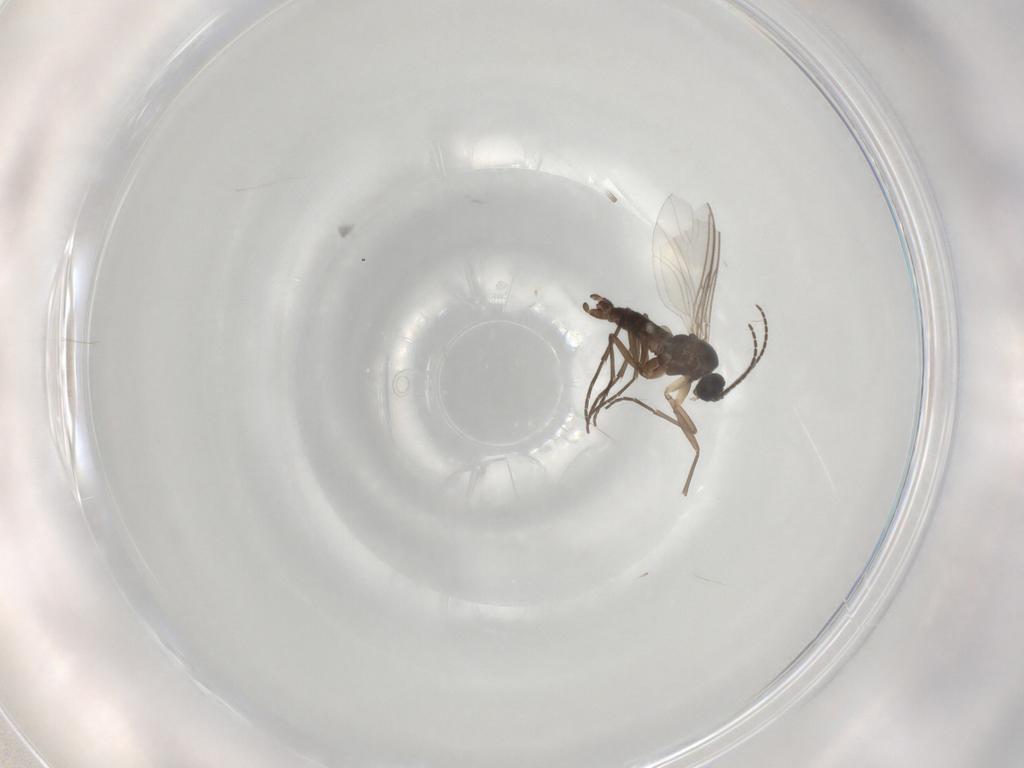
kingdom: Animalia
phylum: Arthropoda
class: Insecta
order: Diptera
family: Sciaridae
